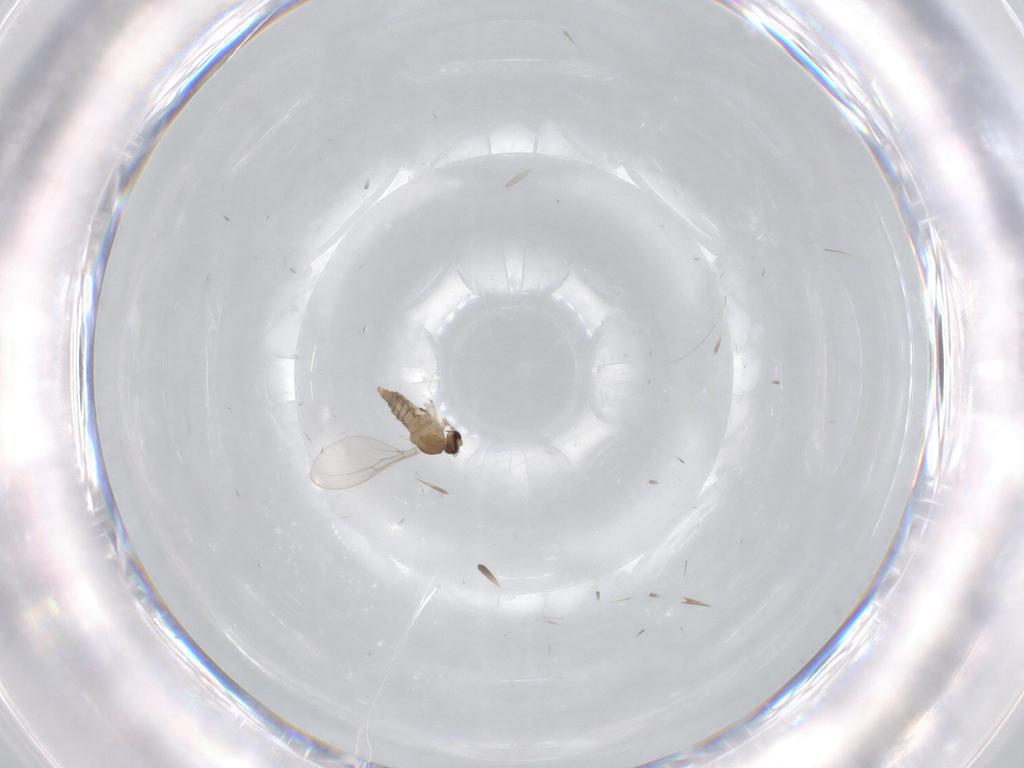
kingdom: Animalia
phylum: Arthropoda
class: Insecta
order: Diptera
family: Cecidomyiidae
